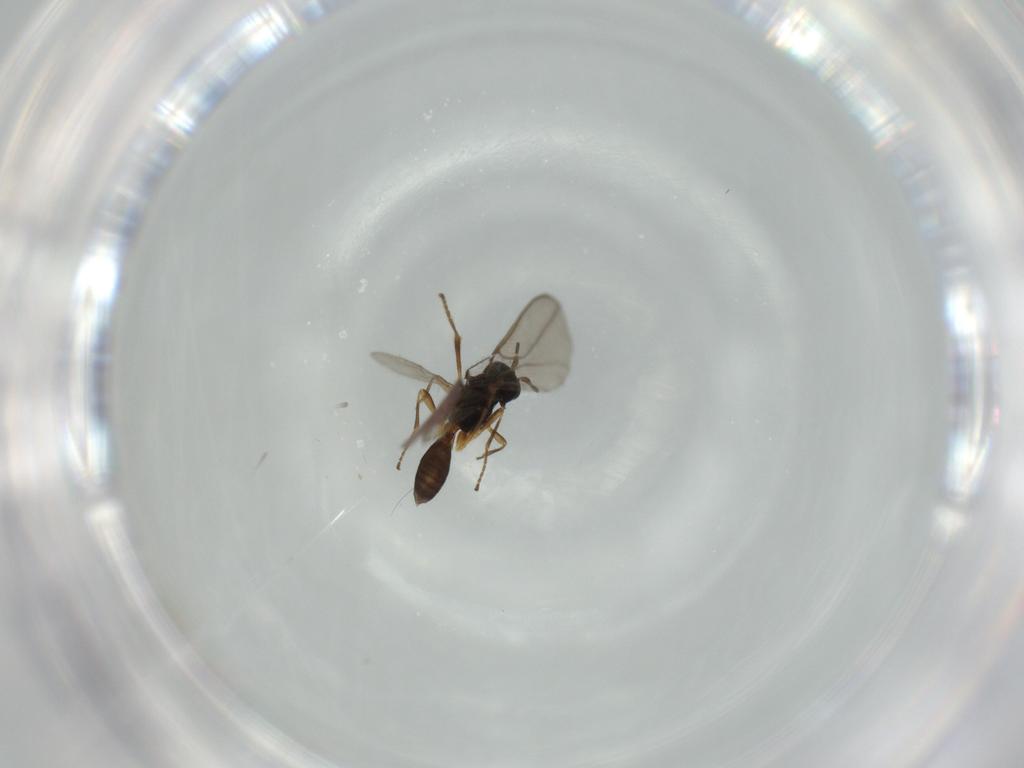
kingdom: Animalia
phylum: Arthropoda
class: Insecta
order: Hymenoptera
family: Braconidae
